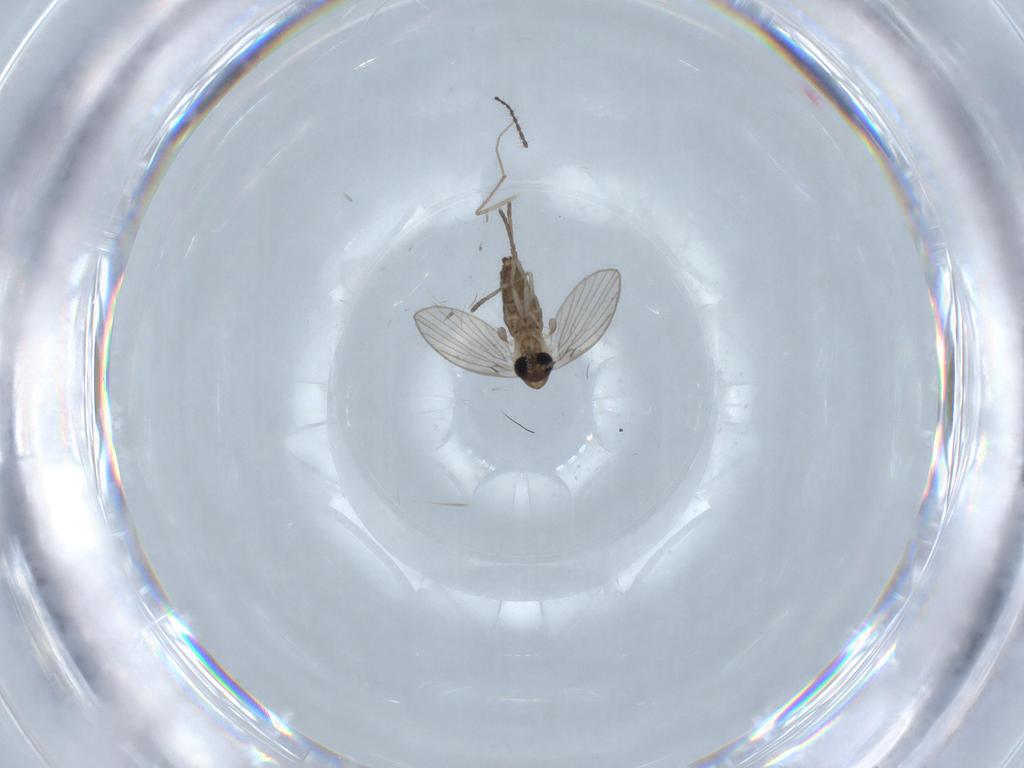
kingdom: Animalia
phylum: Arthropoda
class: Insecta
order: Diptera
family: Limoniidae
